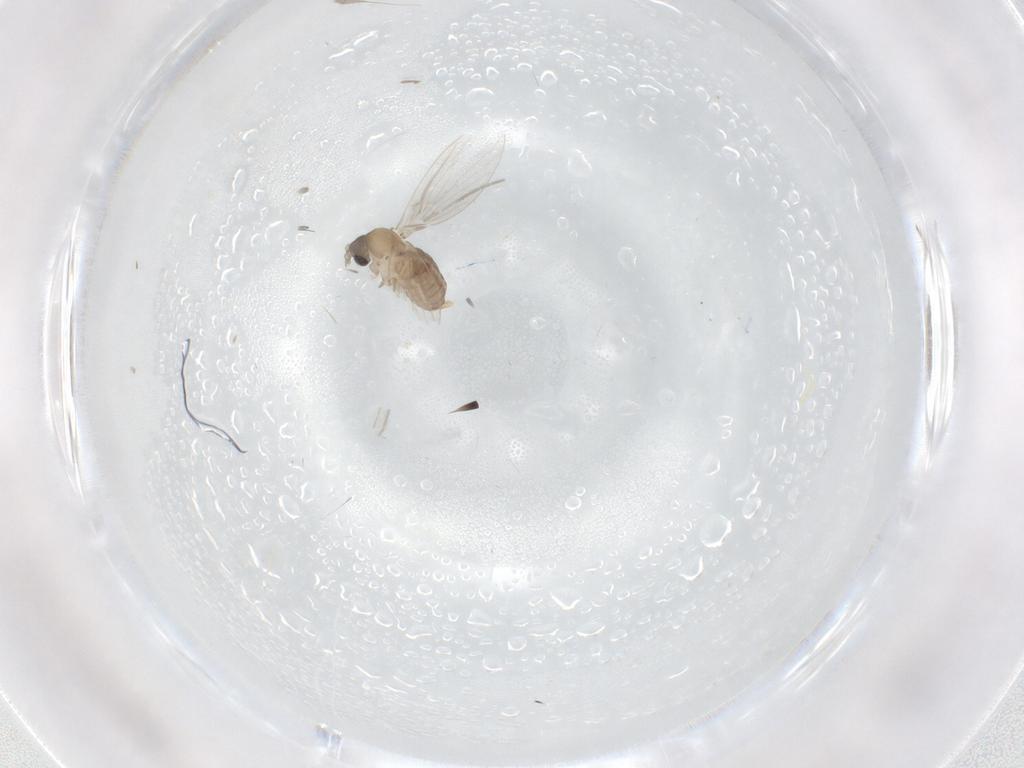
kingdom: Animalia
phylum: Arthropoda
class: Insecta
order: Diptera
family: Psychodidae
